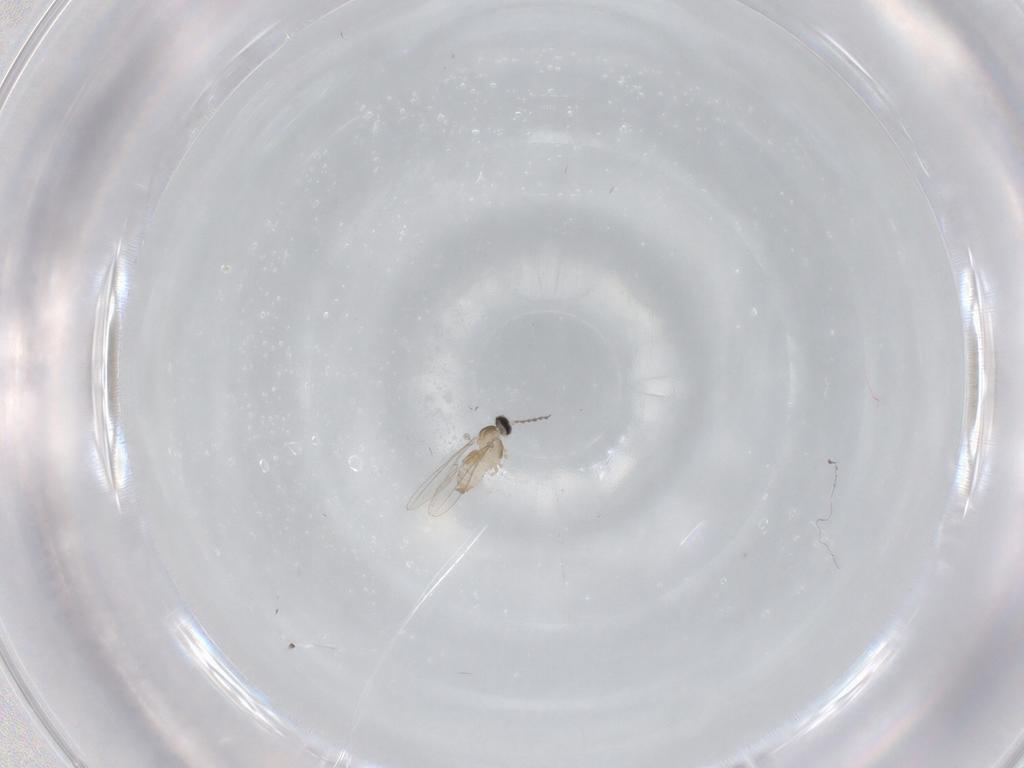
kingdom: Animalia
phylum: Arthropoda
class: Insecta
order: Diptera
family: Cecidomyiidae
